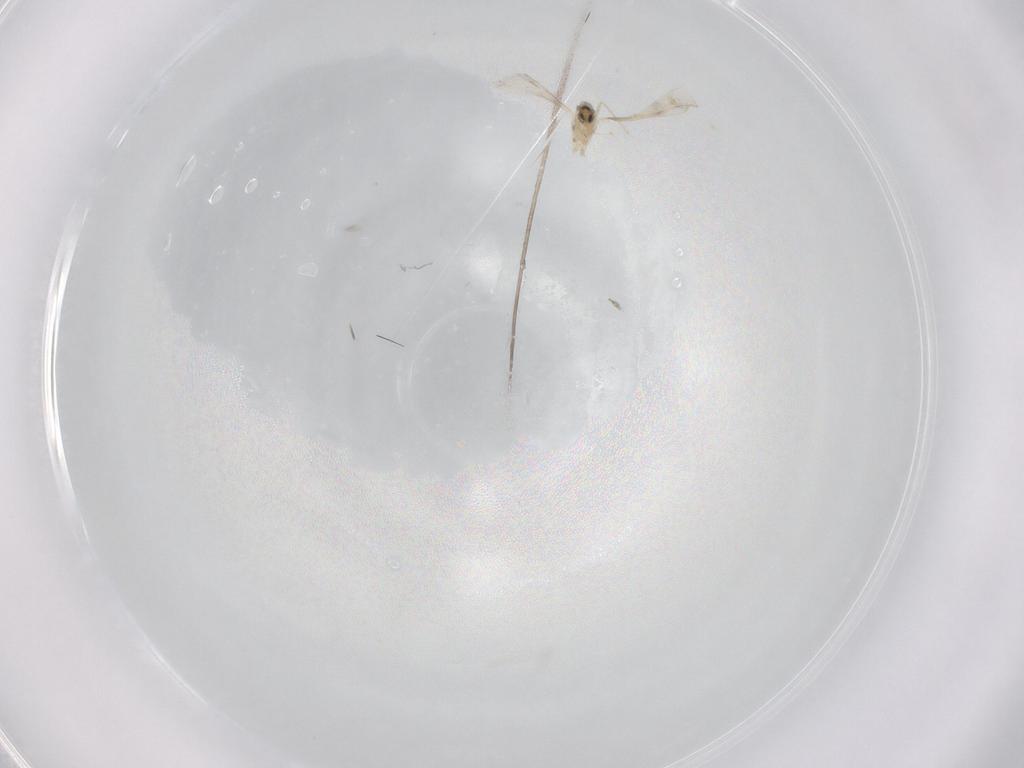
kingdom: Animalia
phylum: Arthropoda
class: Insecta
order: Diptera
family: Cecidomyiidae
